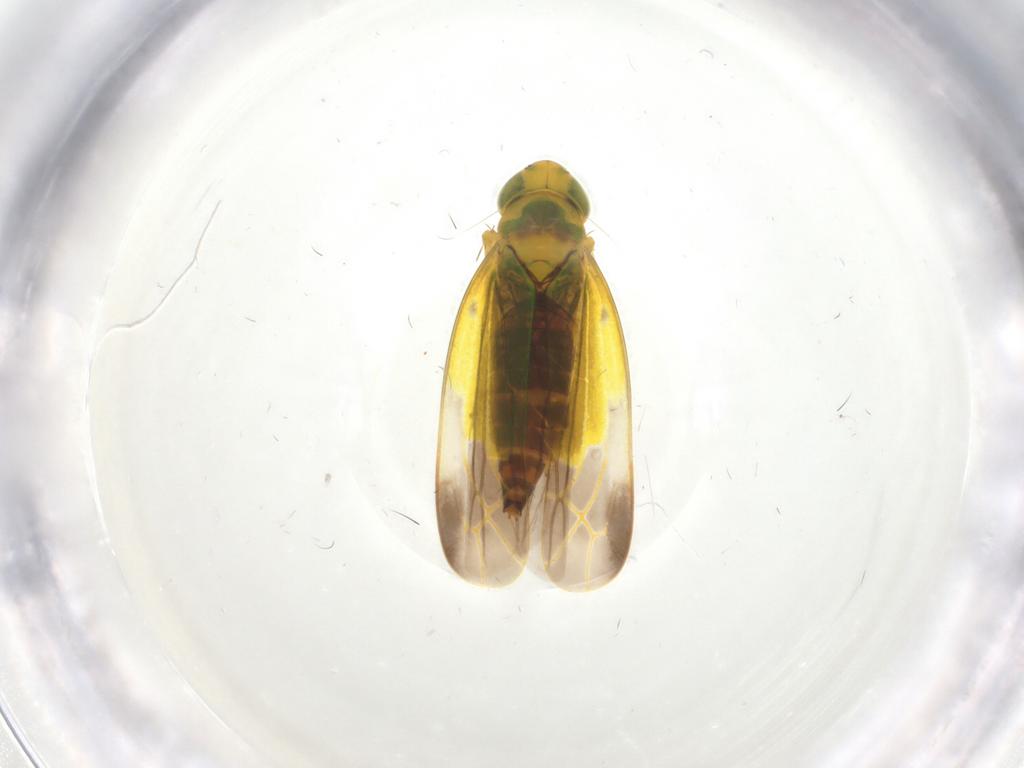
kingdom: Animalia
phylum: Arthropoda
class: Insecta
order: Hemiptera
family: Cicadellidae
